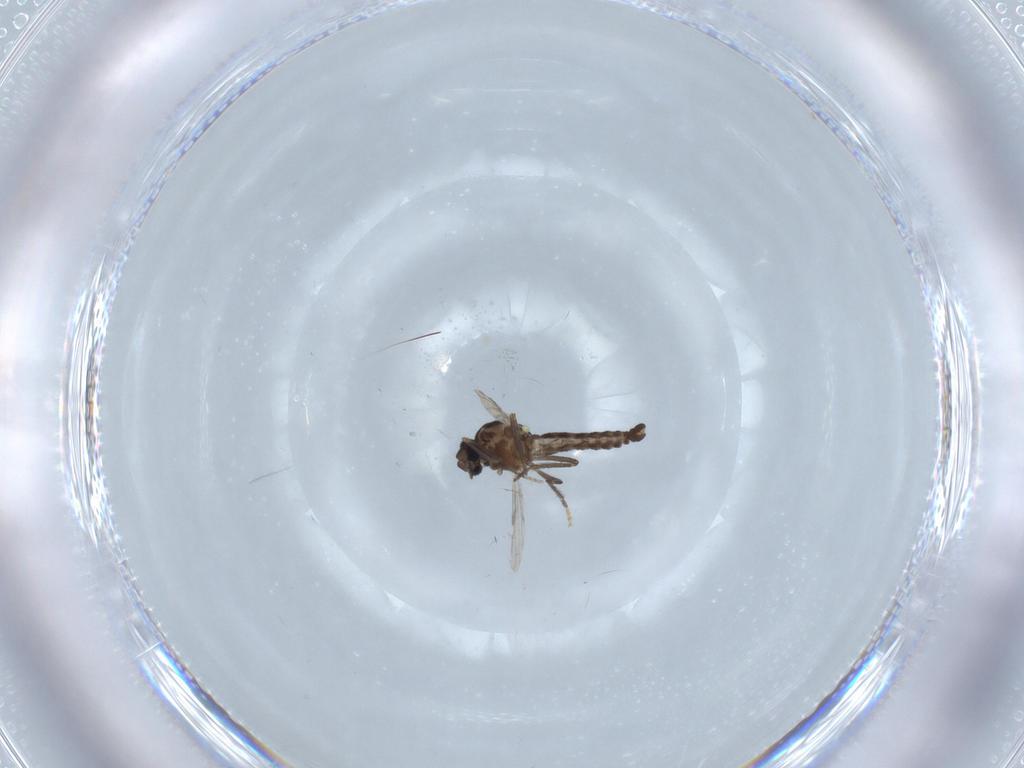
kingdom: Animalia
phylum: Arthropoda
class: Insecta
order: Diptera
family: Ceratopogonidae
